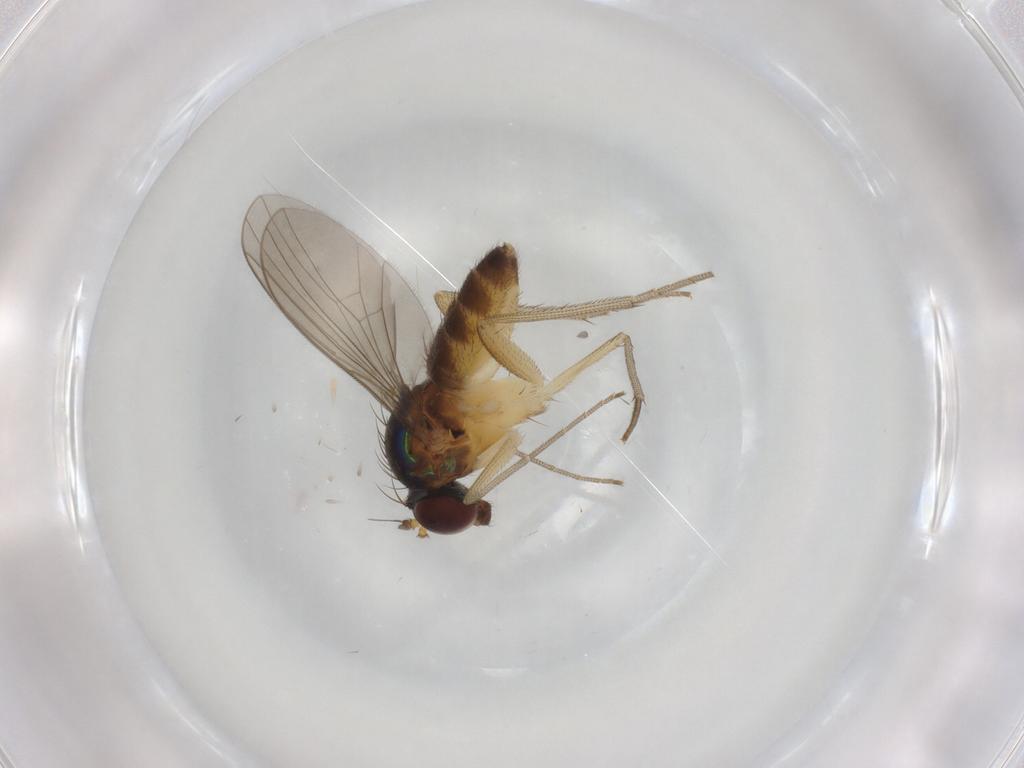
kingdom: Animalia
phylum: Arthropoda
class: Insecta
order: Diptera
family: Dolichopodidae
